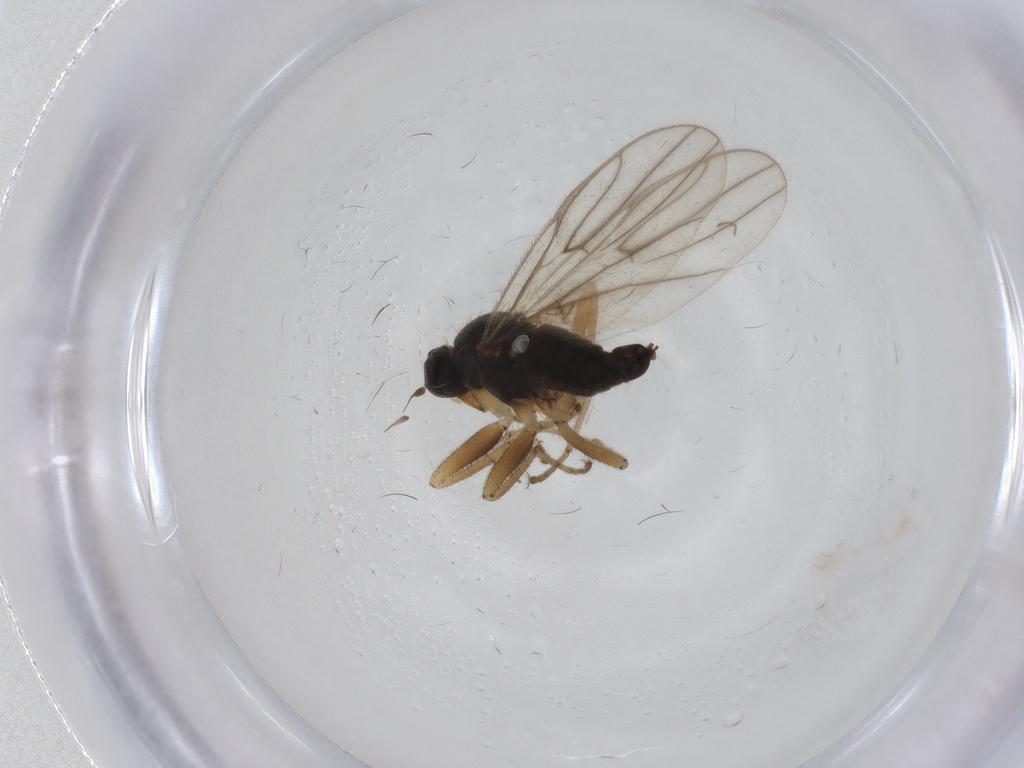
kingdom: Animalia
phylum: Arthropoda
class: Insecta
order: Diptera
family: Hybotidae
